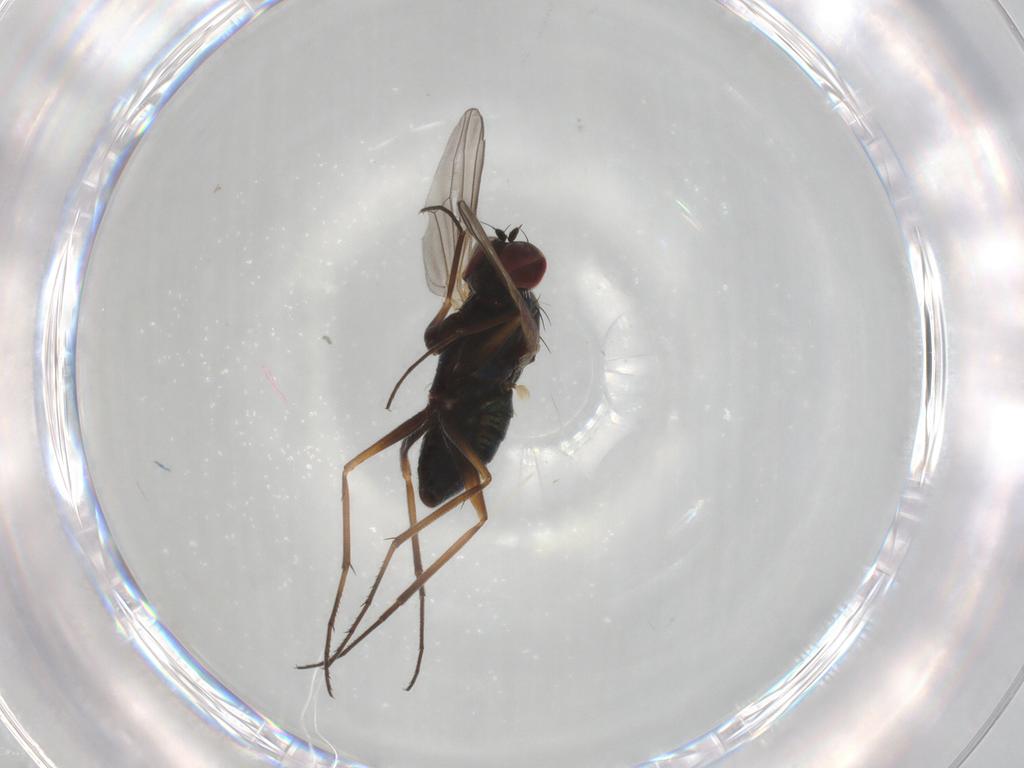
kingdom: Animalia
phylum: Arthropoda
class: Insecta
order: Diptera
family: Dolichopodidae
